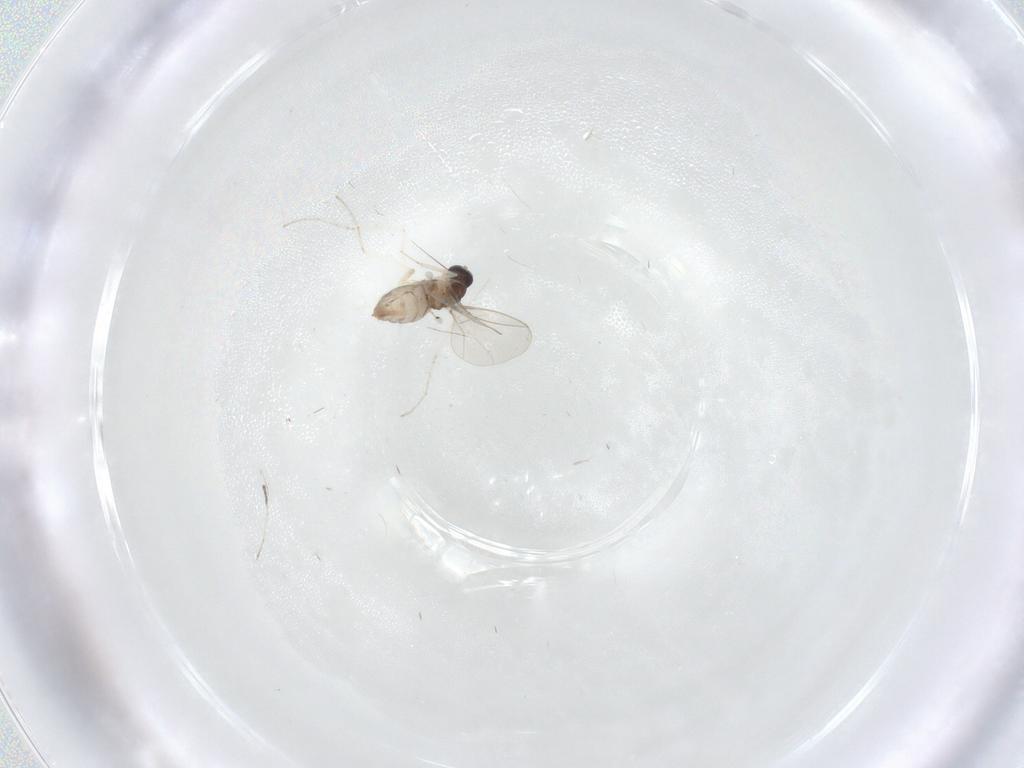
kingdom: Animalia
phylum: Arthropoda
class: Insecta
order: Diptera
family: Cecidomyiidae
